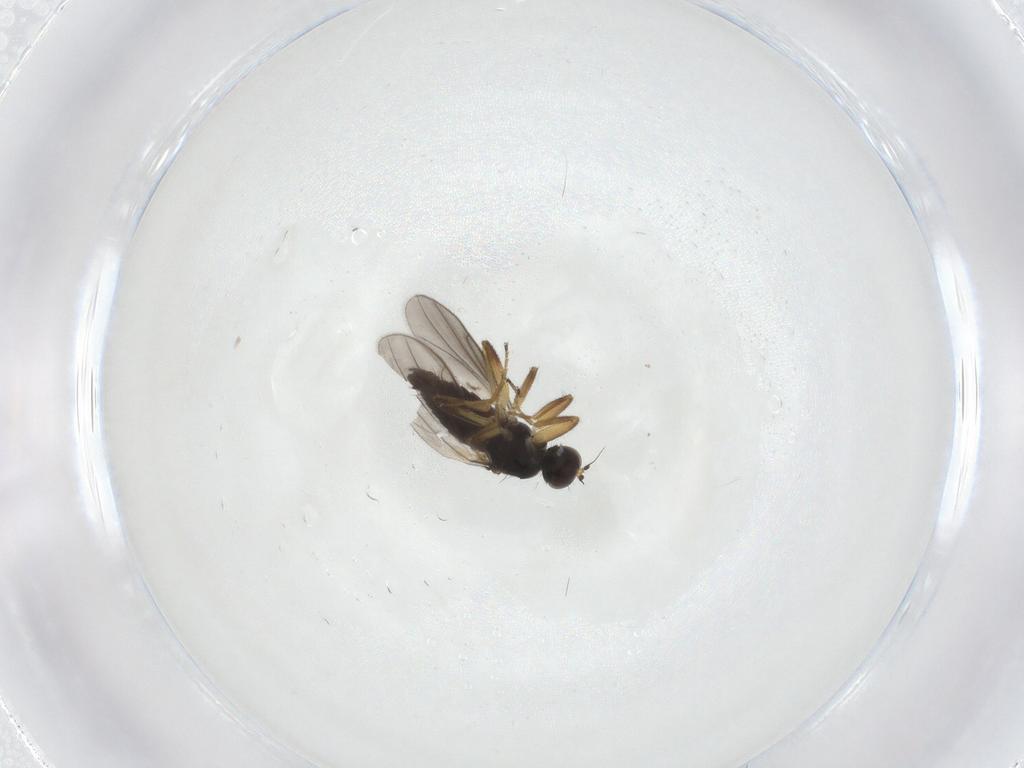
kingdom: Animalia
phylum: Arthropoda
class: Insecta
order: Diptera
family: Hybotidae
